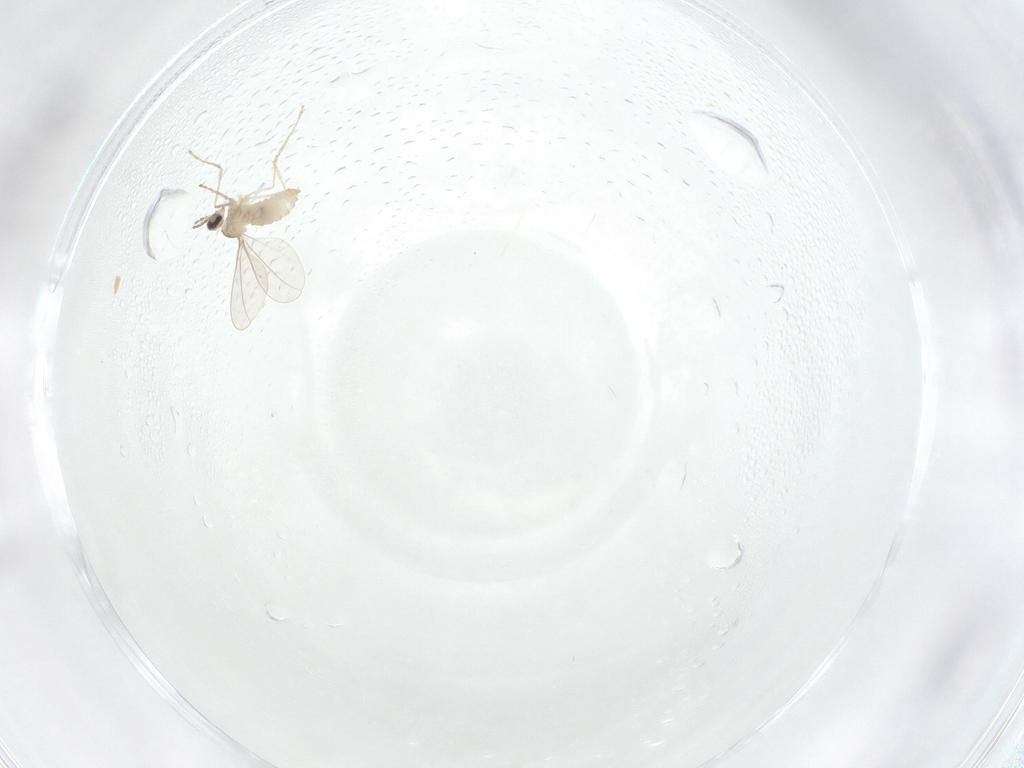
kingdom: Animalia
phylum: Arthropoda
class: Insecta
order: Diptera
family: Cecidomyiidae
